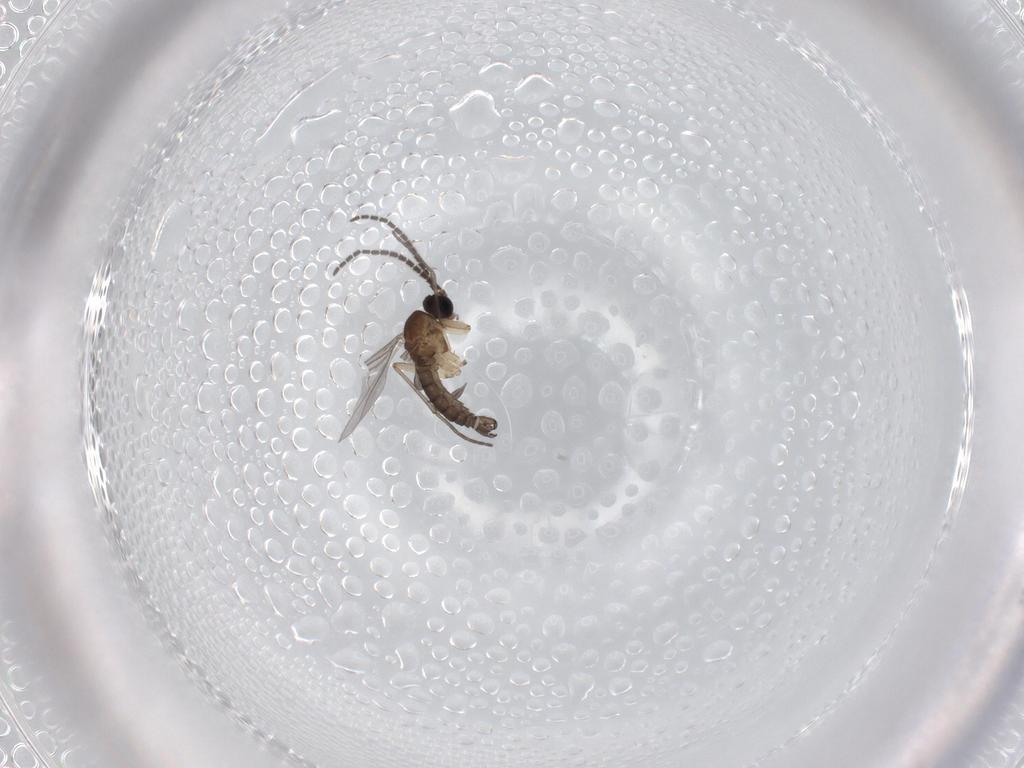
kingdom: Animalia
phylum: Arthropoda
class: Insecta
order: Diptera
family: Sciaridae
